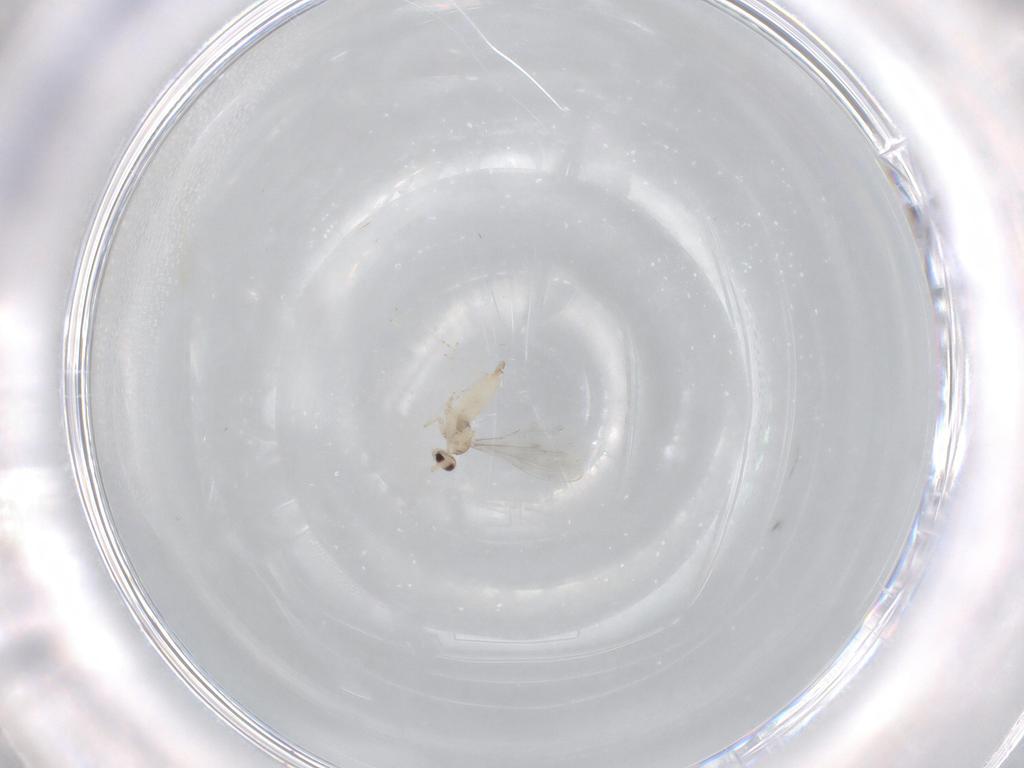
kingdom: Animalia
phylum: Arthropoda
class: Insecta
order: Diptera
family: Cecidomyiidae
